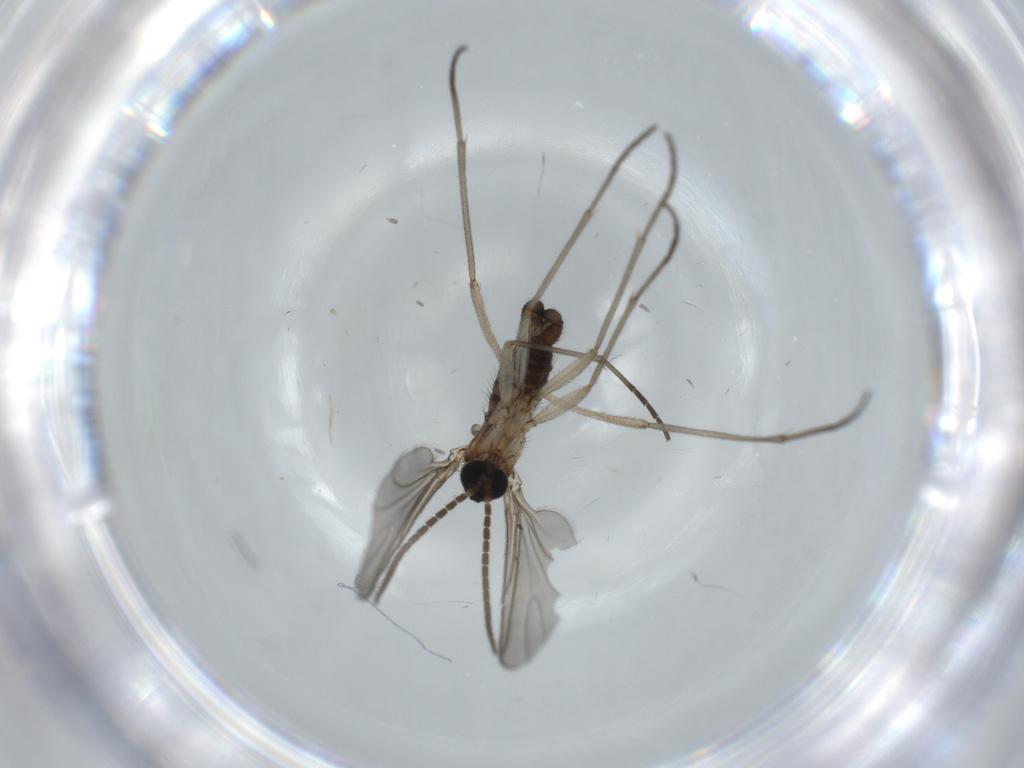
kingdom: Animalia
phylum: Arthropoda
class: Insecta
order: Diptera
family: Sciaridae
